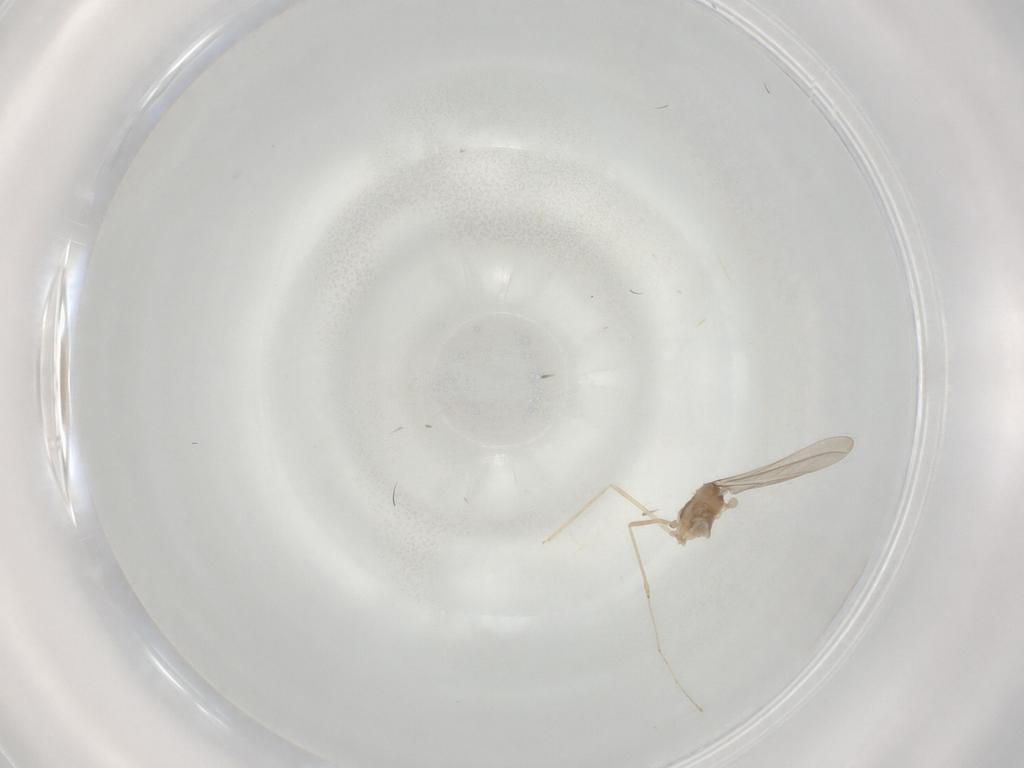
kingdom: Animalia
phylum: Arthropoda
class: Insecta
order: Diptera
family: Cecidomyiidae
